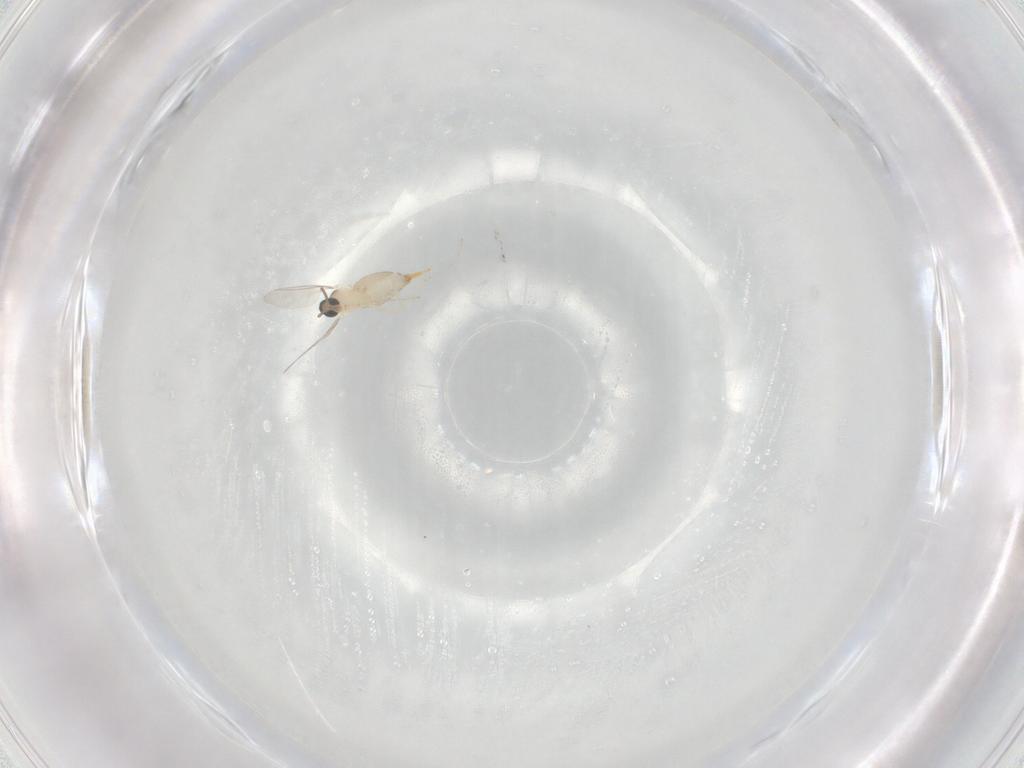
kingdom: Animalia
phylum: Arthropoda
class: Insecta
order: Diptera
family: Cecidomyiidae
